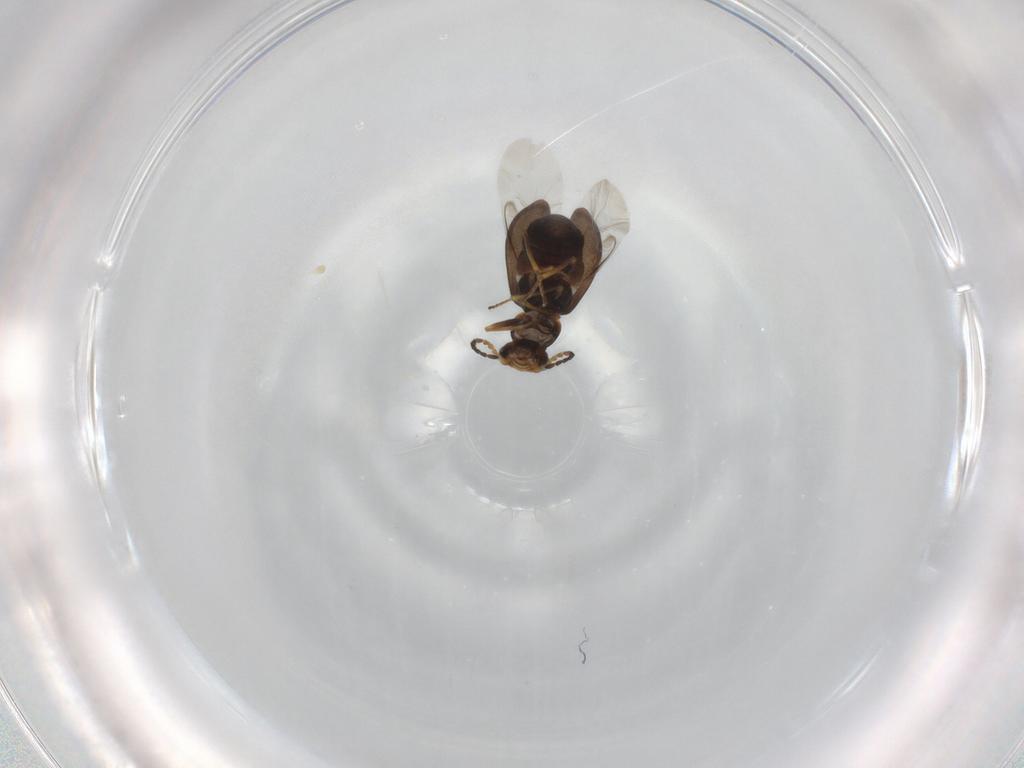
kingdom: Animalia
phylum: Arthropoda
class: Insecta
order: Coleoptera
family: Melyridae
